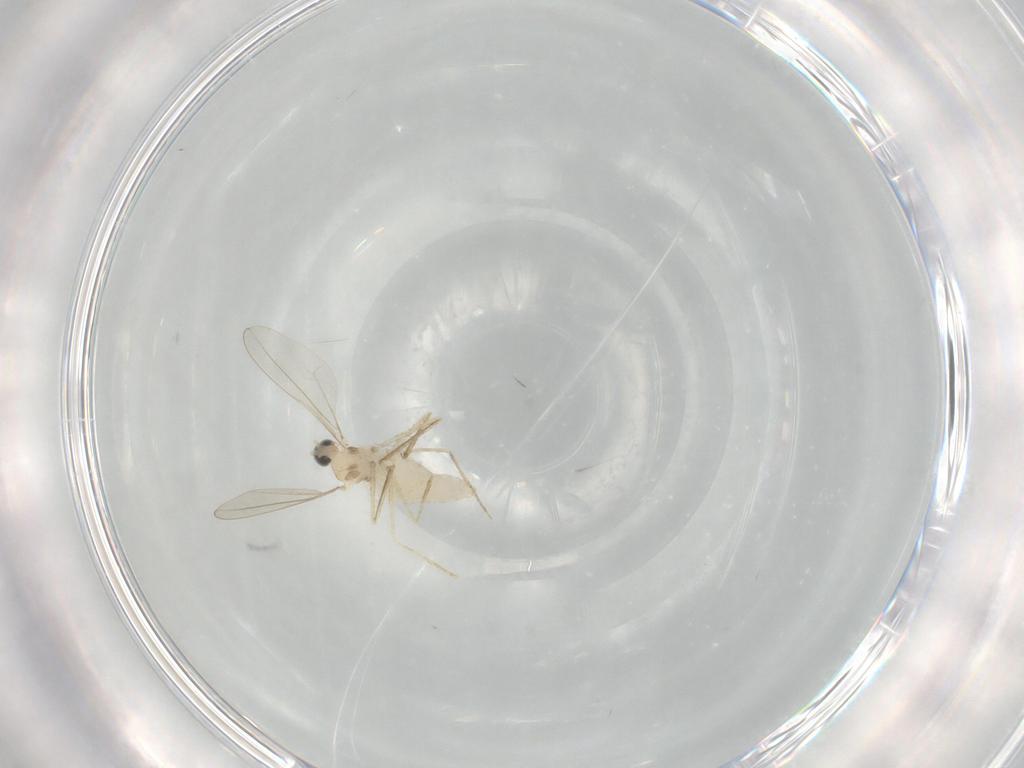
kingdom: Animalia
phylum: Arthropoda
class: Insecta
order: Diptera
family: Cecidomyiidae
